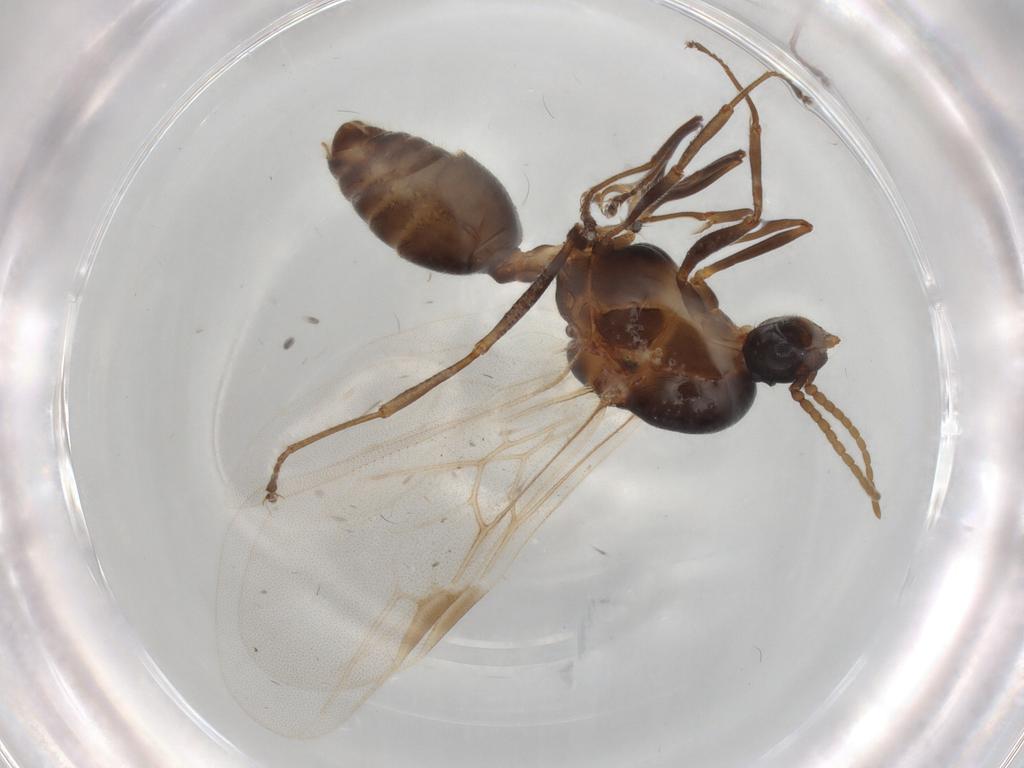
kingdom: Animalia
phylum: Arthropoda
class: Insecta
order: Hymenoptera
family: Formicidae
